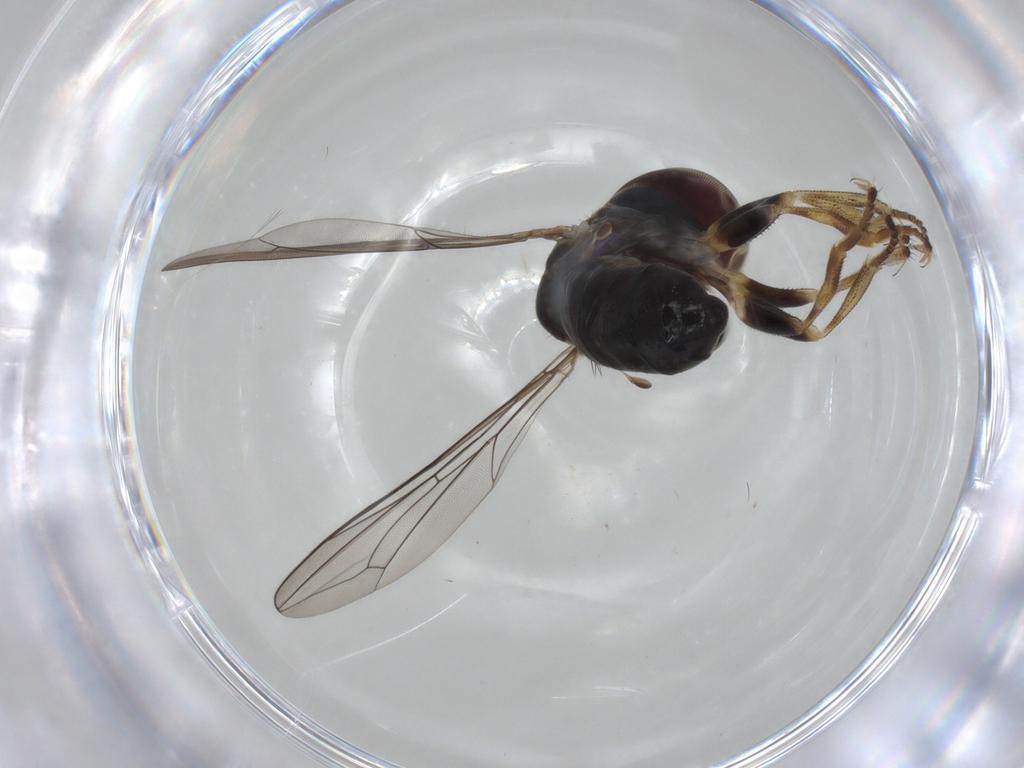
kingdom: Animalia
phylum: Arthropoda
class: Insecta
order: Diptera
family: Pipunculidae
